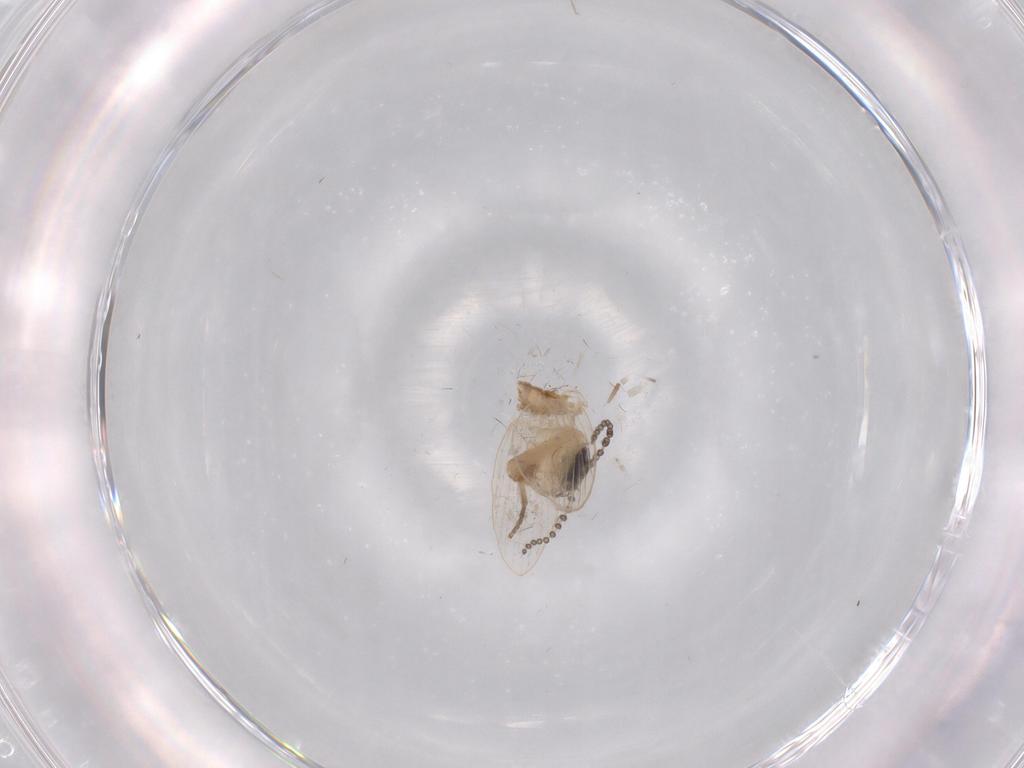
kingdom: Animalia
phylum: Arthropoda
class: Insecta
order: Diptera
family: Psychodidae
